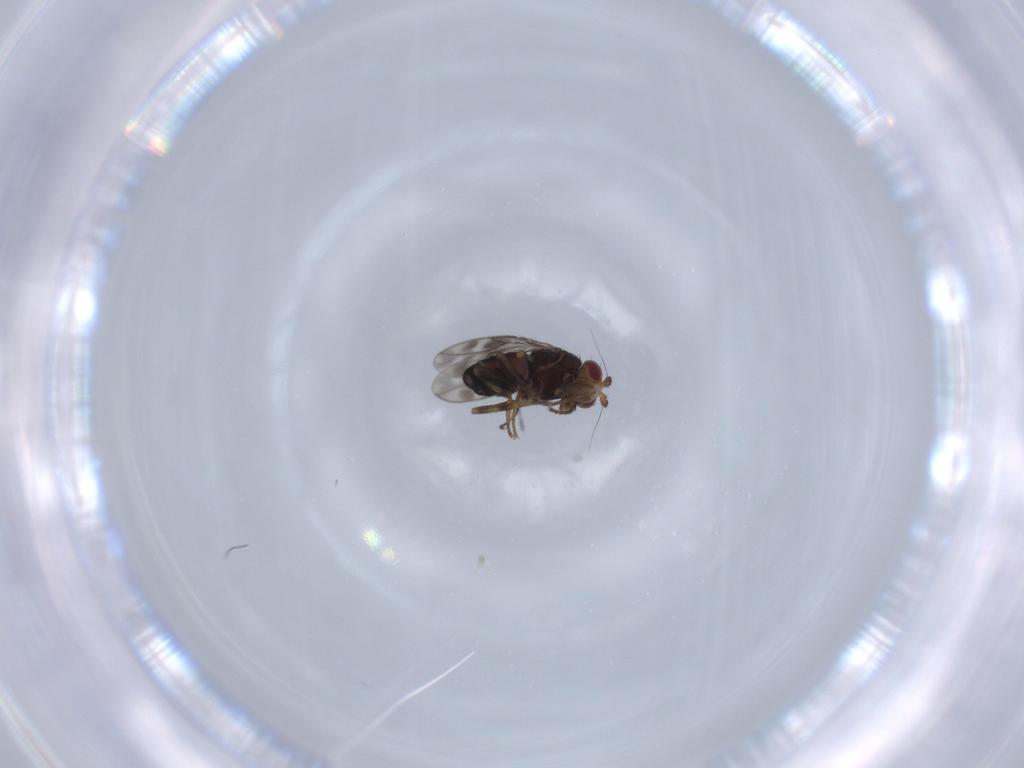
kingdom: Animalia
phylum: Arthropoda
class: Insecta
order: Diptera
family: Sphaeroceridae
